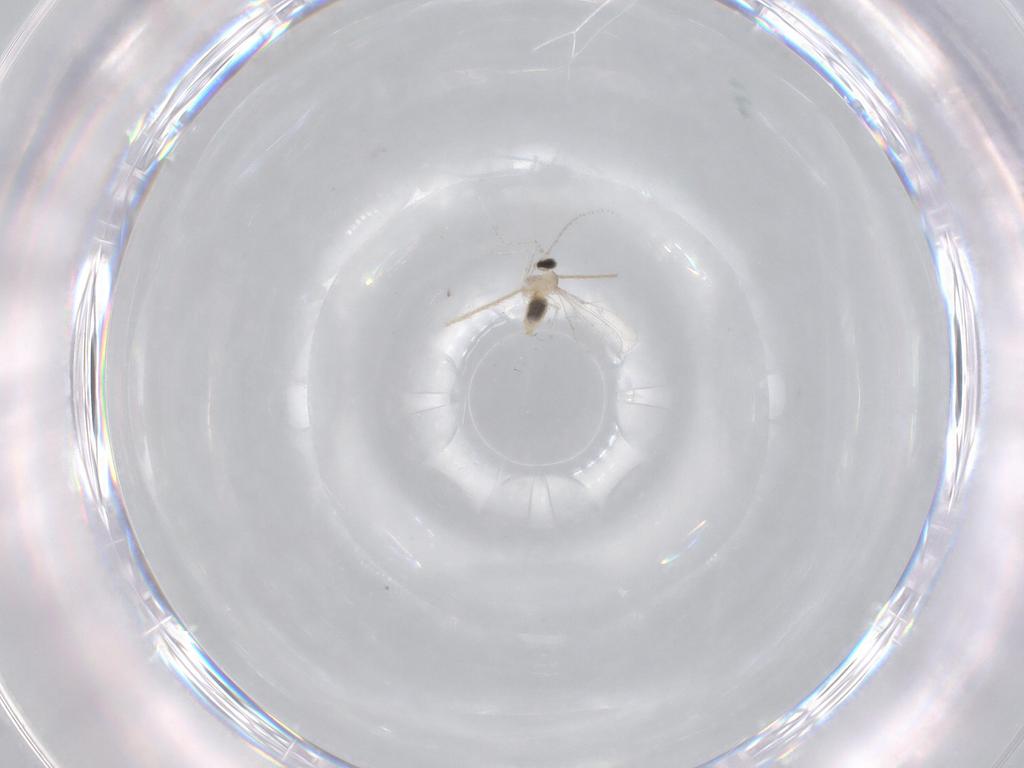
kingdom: Animalia
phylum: Arthropoda
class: Insecta
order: Diptera
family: Chironomidae
